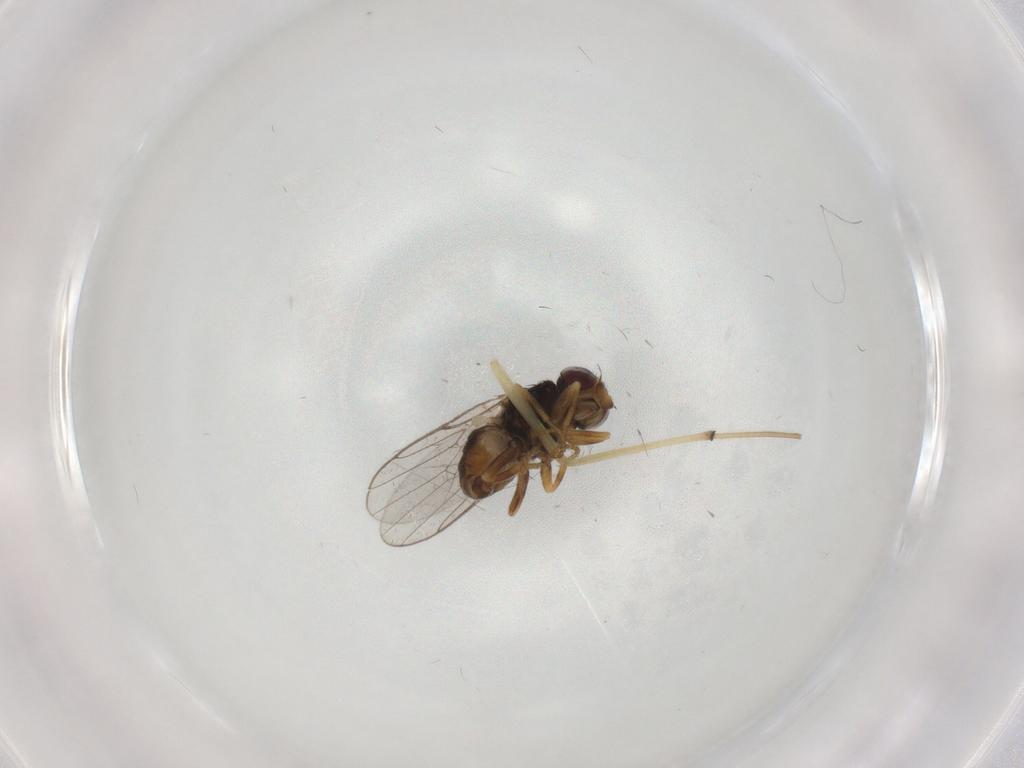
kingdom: Animalia
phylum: Arthropoda
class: Insecta
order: Diptera
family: Chloropidae
